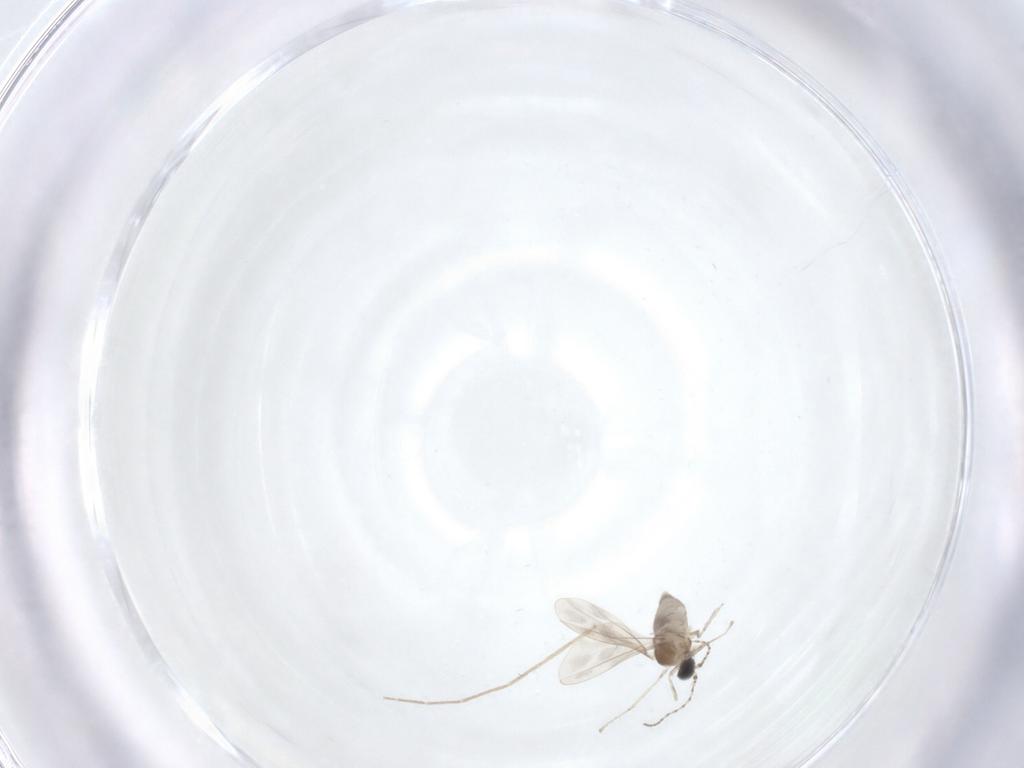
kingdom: Animalia
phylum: Arthropoda
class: Insecta
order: Diptera
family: Chironomidae
